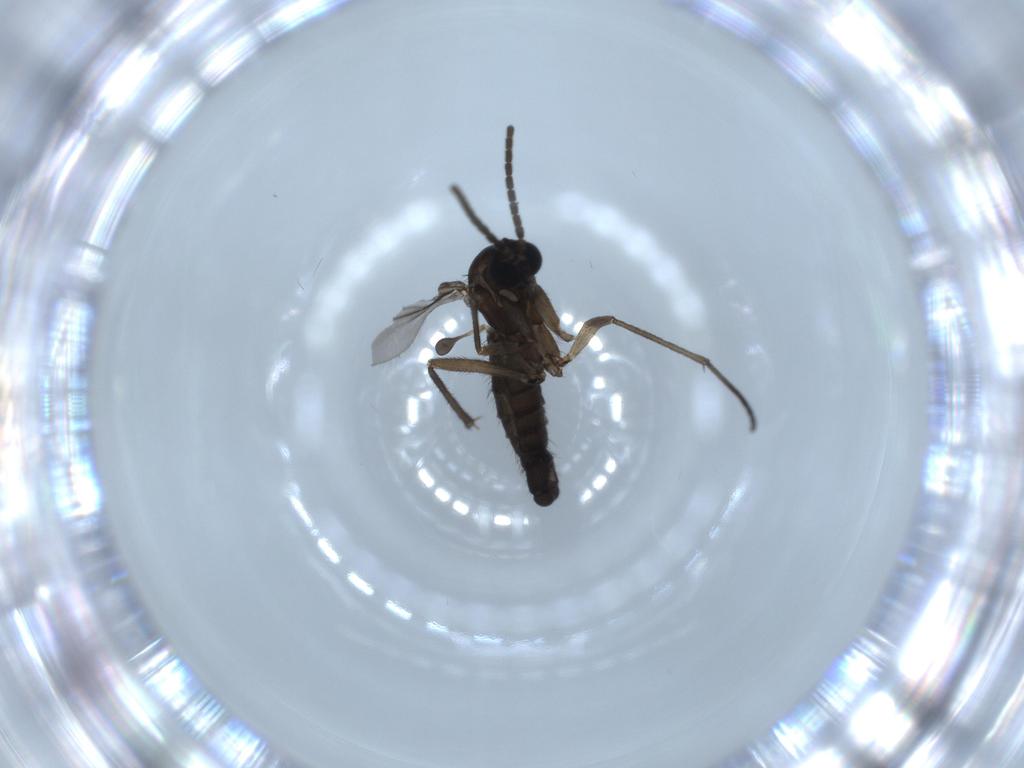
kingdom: Animalia
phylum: Arthropoda
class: Insecta
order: Diptera
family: Sciaridae
